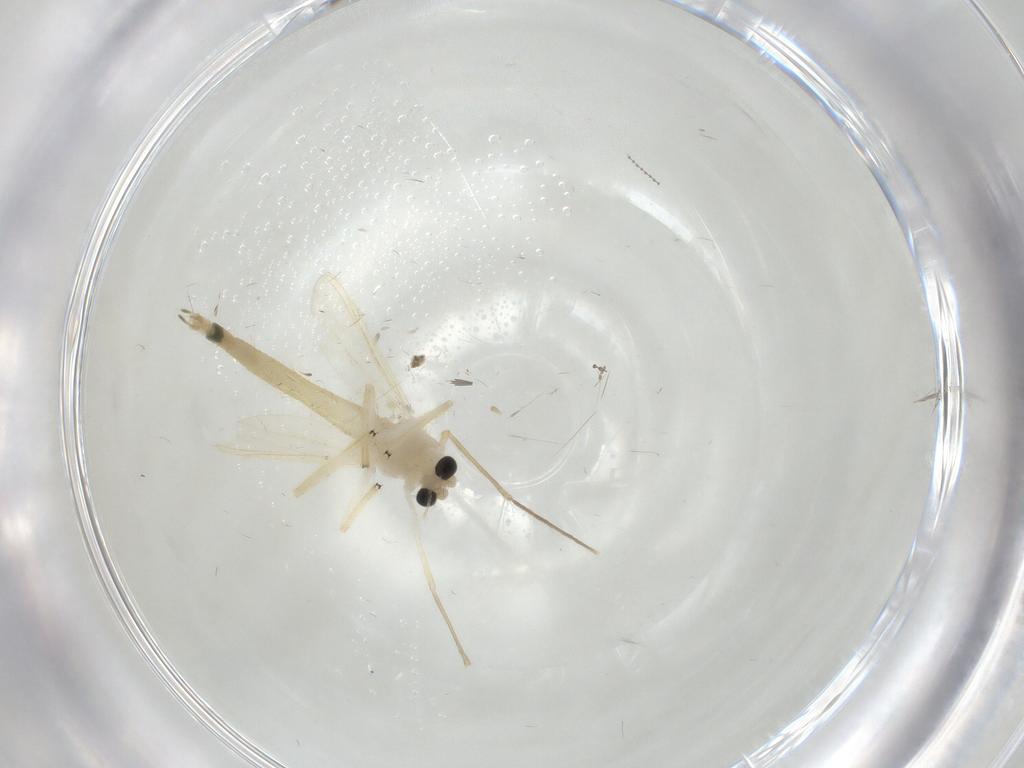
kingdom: Animalia
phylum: Arthropoda
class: Insecta
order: Diptera
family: Chironomidae
